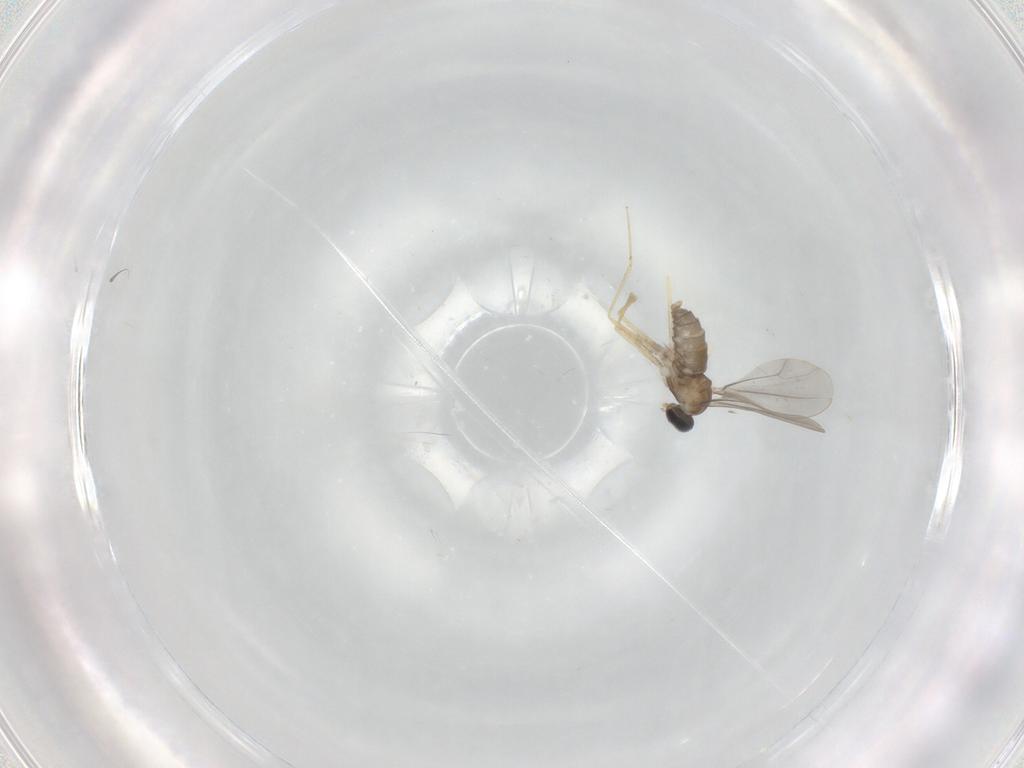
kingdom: Animalia
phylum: Arthropoda
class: Insecta
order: Diptera
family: Cecidomyiidae
